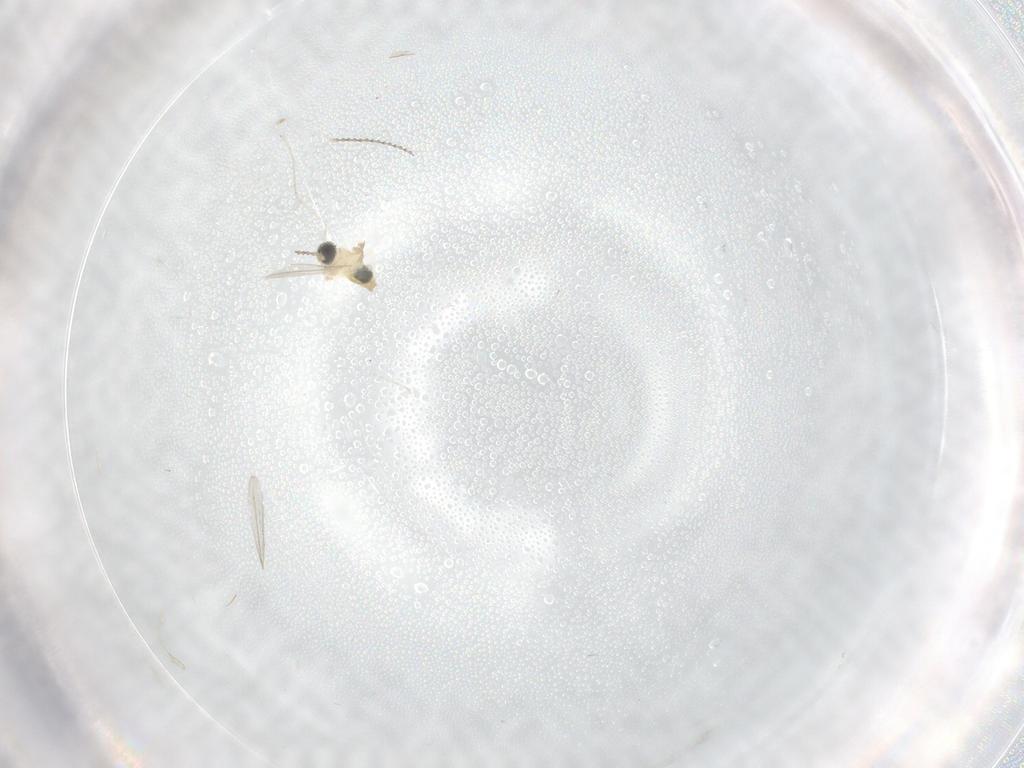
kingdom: Animalia
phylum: Arthropoda
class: Insecta
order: Diptera
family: Cecidomyiidae
